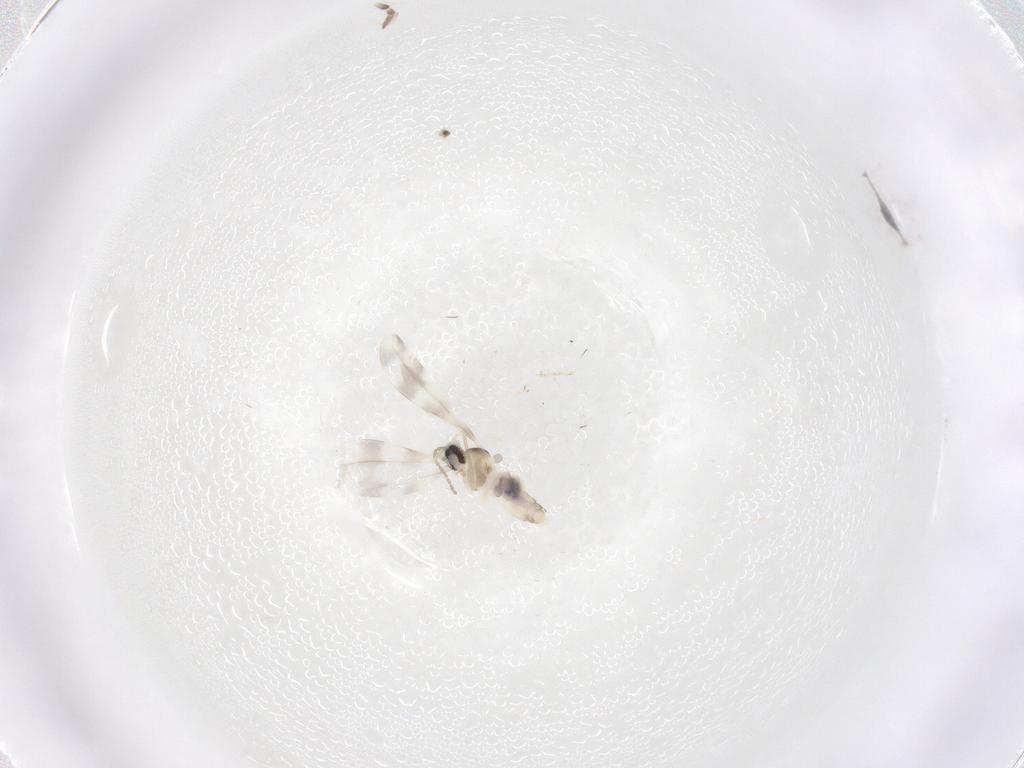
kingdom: Animalia
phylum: Arthropoda
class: Insecta
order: Diptera
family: Cecidomyiidae
